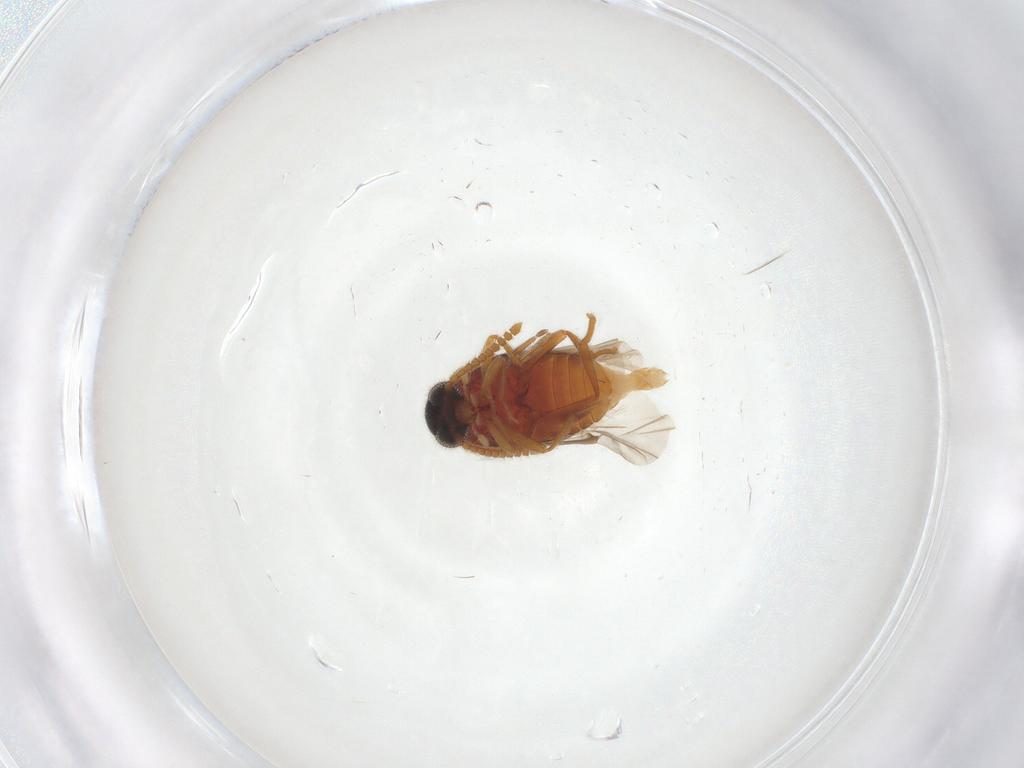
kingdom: Animalia
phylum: Arthropoda
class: Insecta
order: Coleoptera
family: Aderidae
